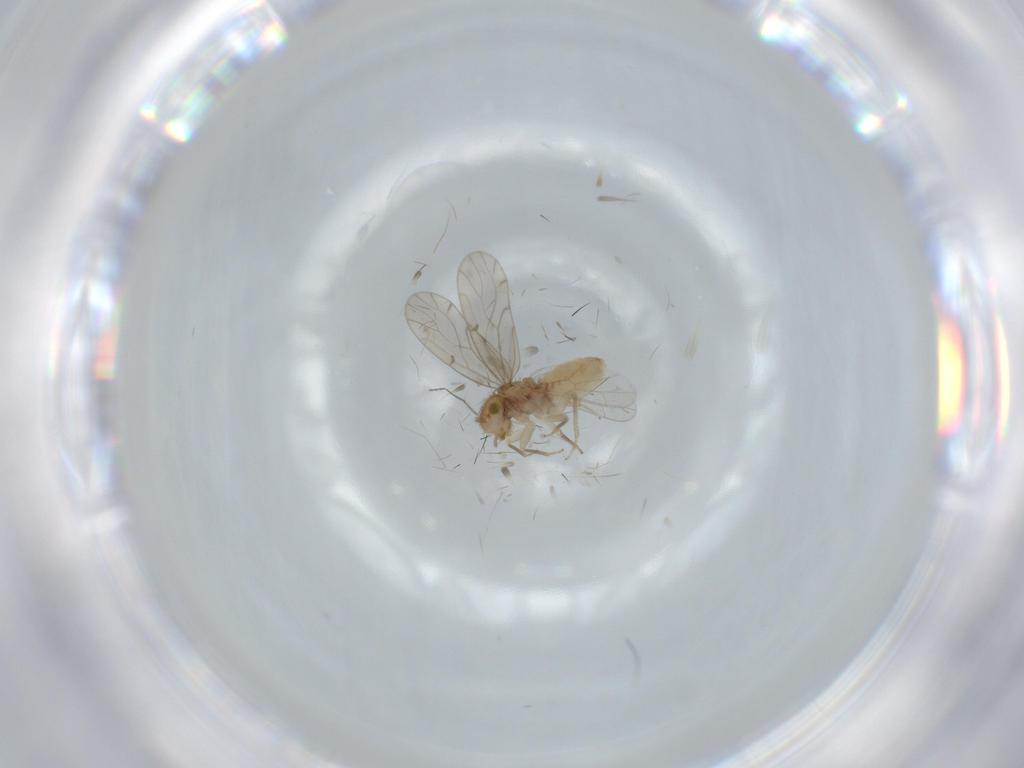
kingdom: Animalia
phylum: Arthropoda
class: Insecta
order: Psocodea
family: Ectopsocidae
